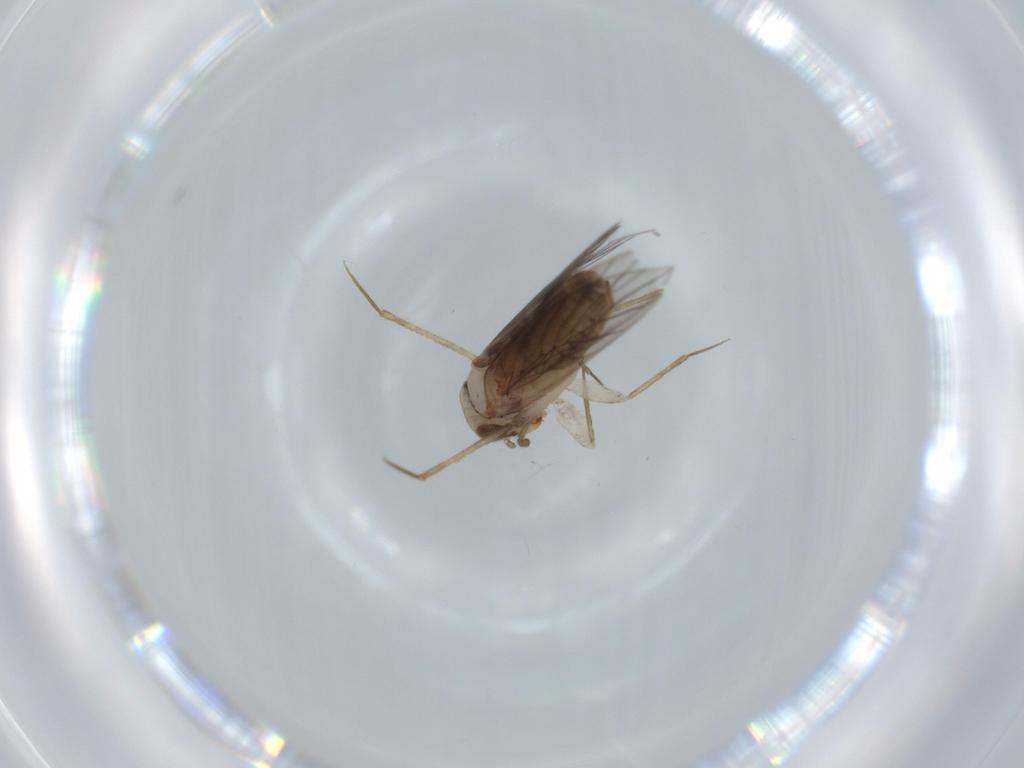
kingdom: Animalia
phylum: Arthropoda
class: Insecta
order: Psocodea
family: Lepidopsocidae
